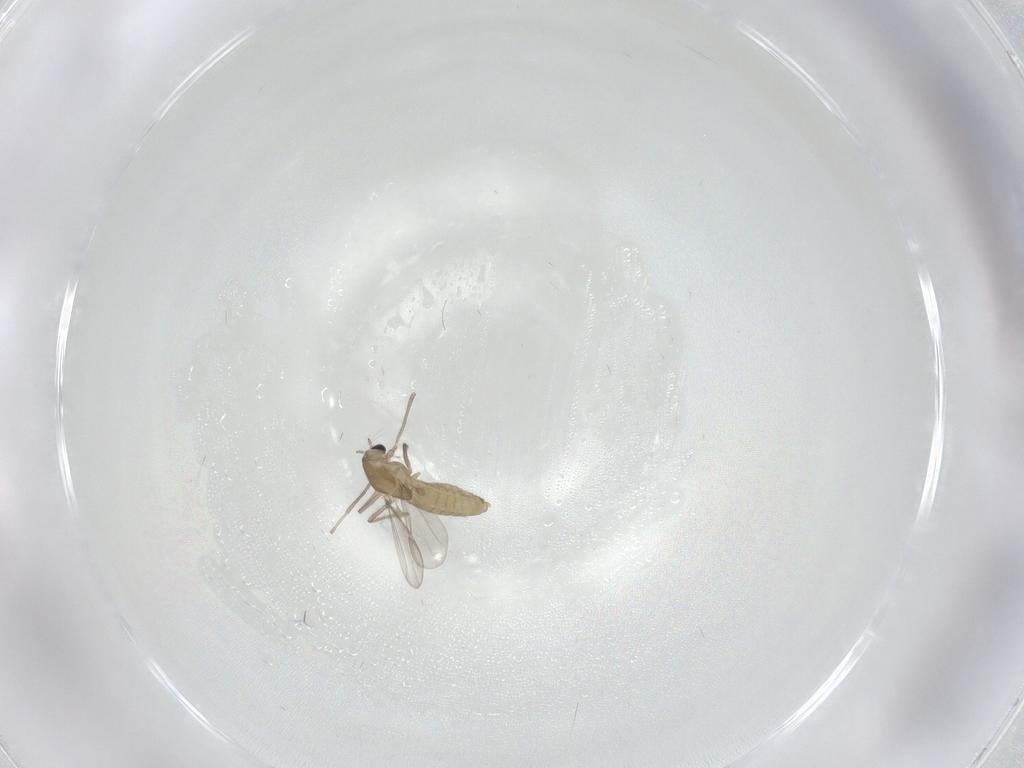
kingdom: Animalia
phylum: Arthropoda
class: Insecta
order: Diptera
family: Chironomidae
